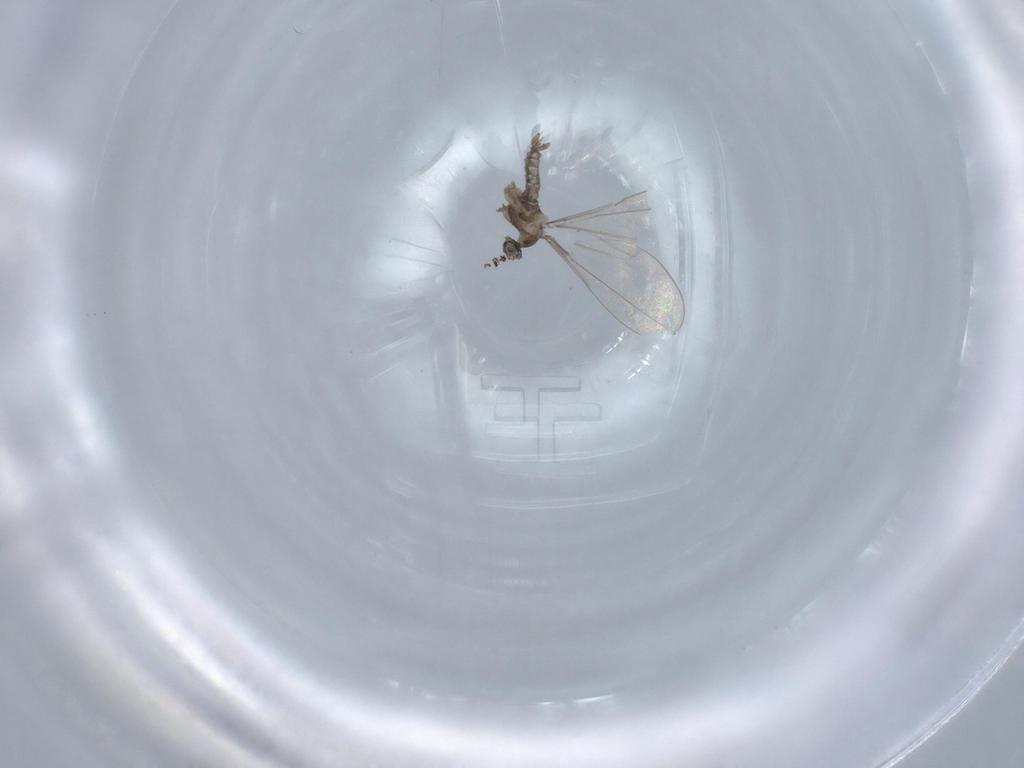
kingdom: Animalia
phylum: Arthropoda
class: Insecta
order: Diptera
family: Cecidomyiidae
